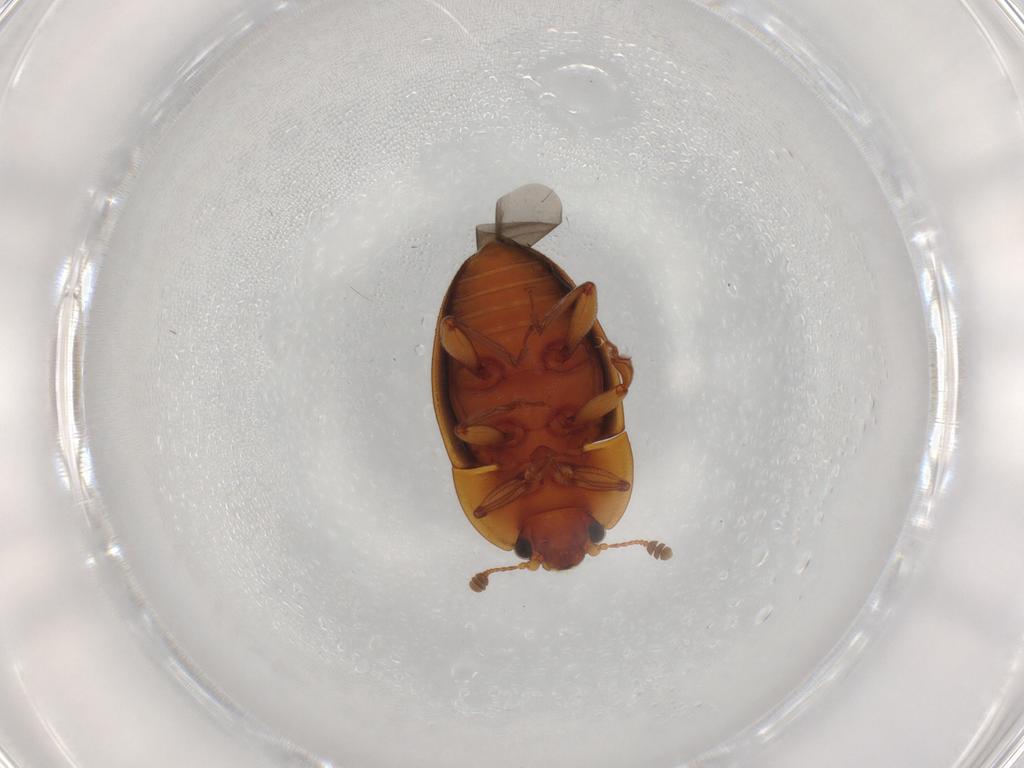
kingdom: Animalia
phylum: Arthropoda
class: Insecta
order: Coleoptera
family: Nitidulidae
